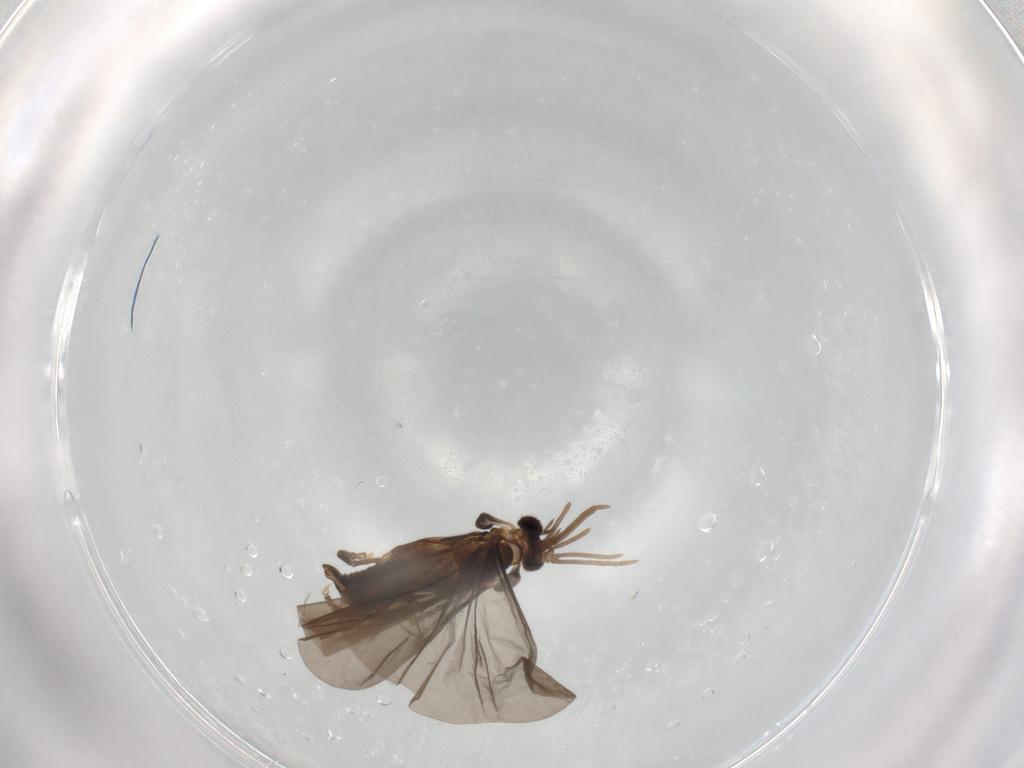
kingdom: Animalia
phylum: Arthropoda
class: Insecta
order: Strepsiptera
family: Corioxenidae
